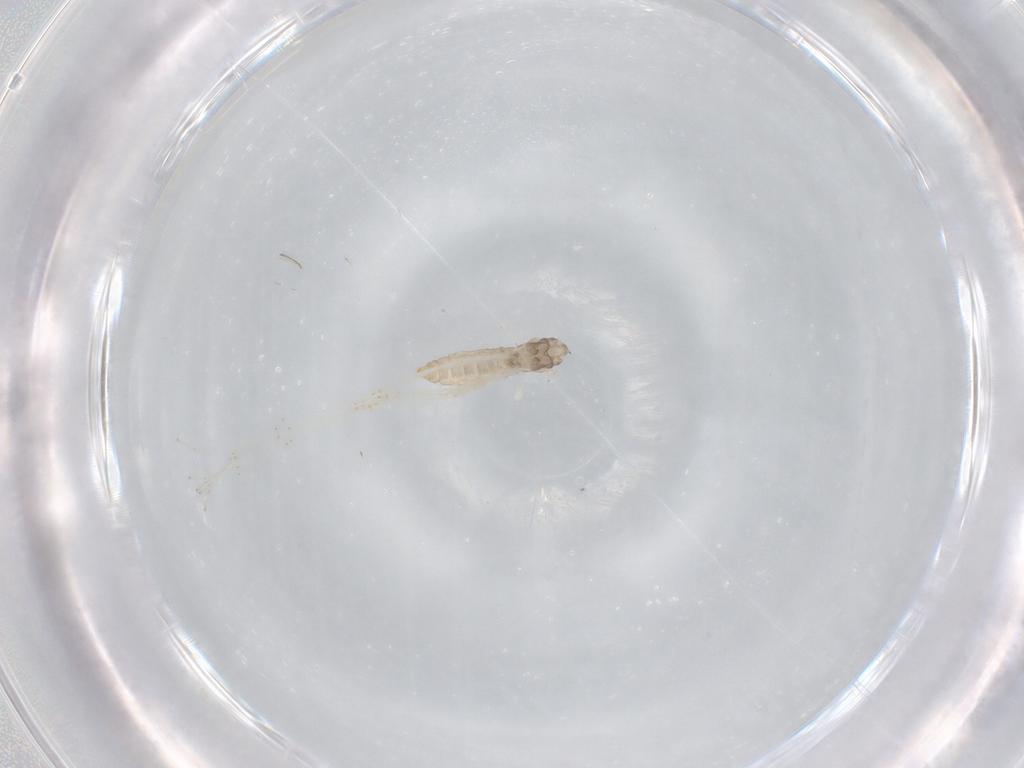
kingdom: Animalia
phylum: Arthropoda
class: Insecta
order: Diptera
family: Cecidomyiidae
